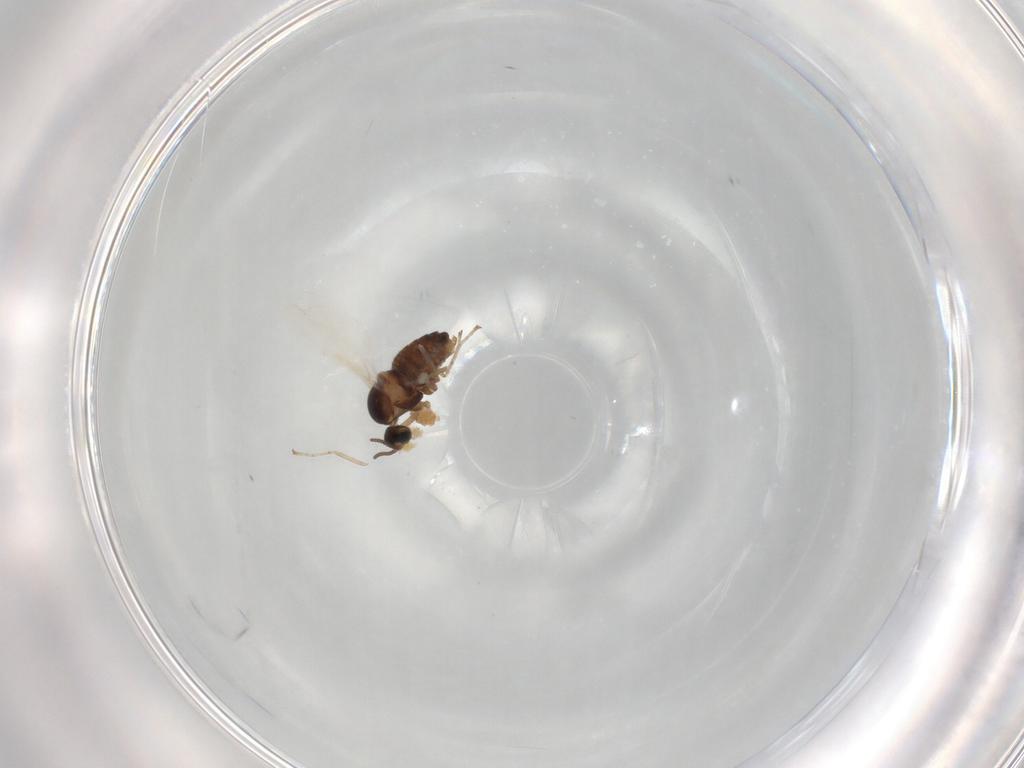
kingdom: Animalia
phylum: Arthropoda
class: Insecta
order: Diptera
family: Cecidomyiidae
